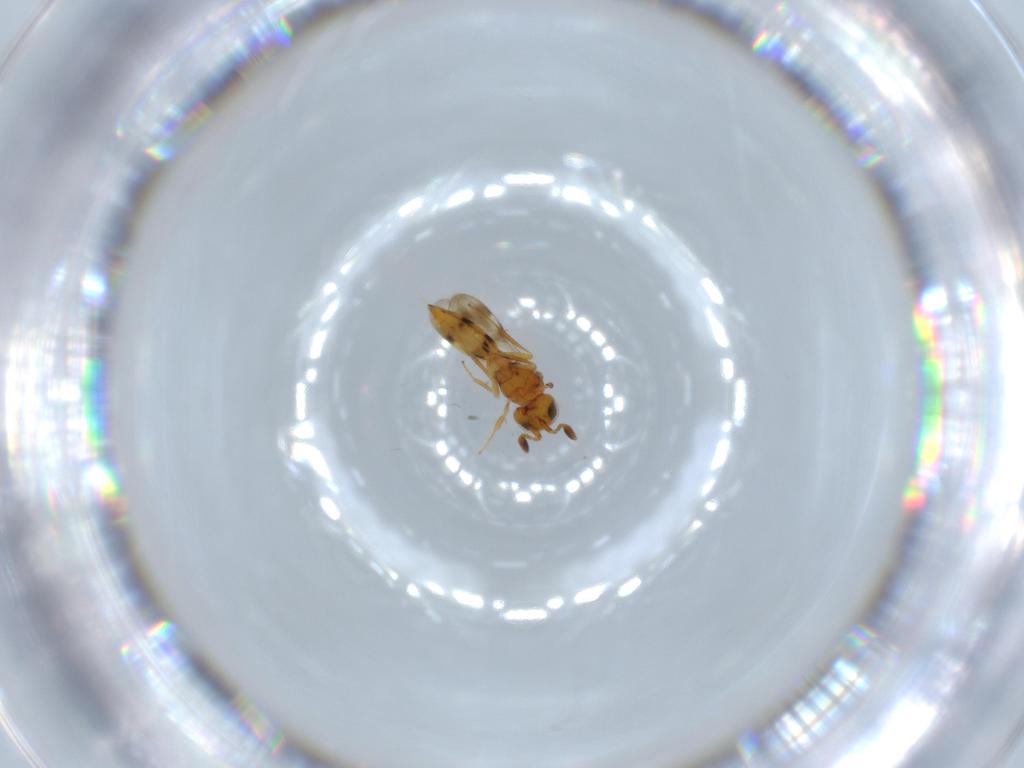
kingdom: Animalia
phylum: Arthropoda
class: Insecta
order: Hymenoptera
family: Scelionidae
